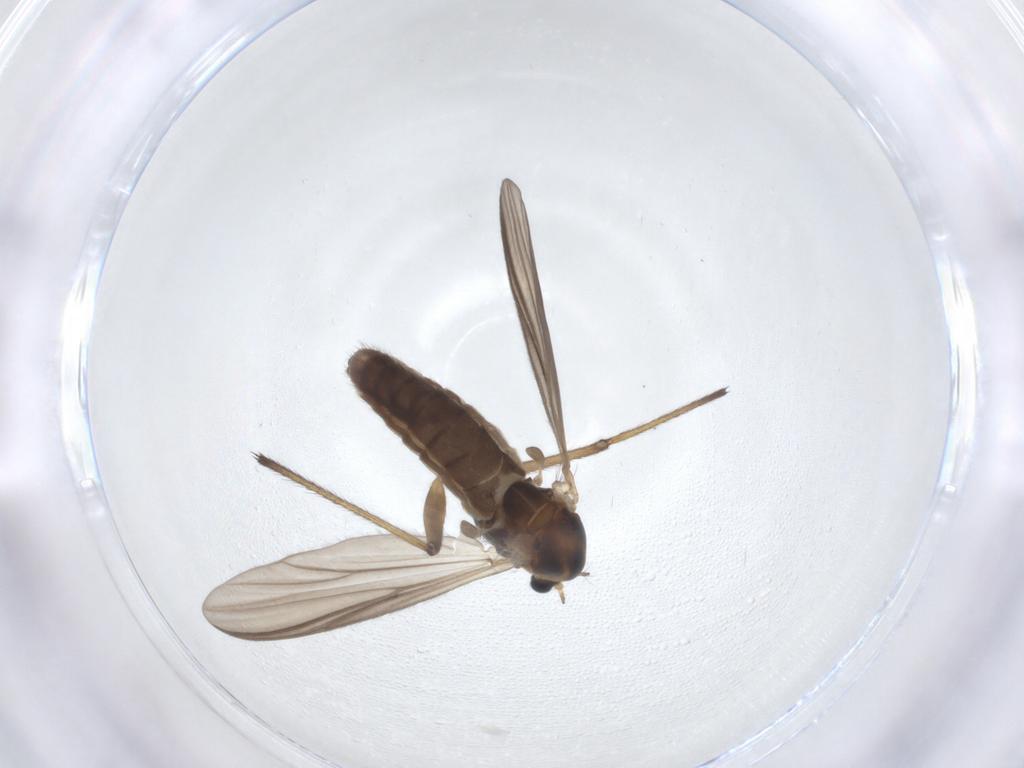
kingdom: Animalia
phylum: Arthropoda
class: Insecta
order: Diptera
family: Chironomidae
